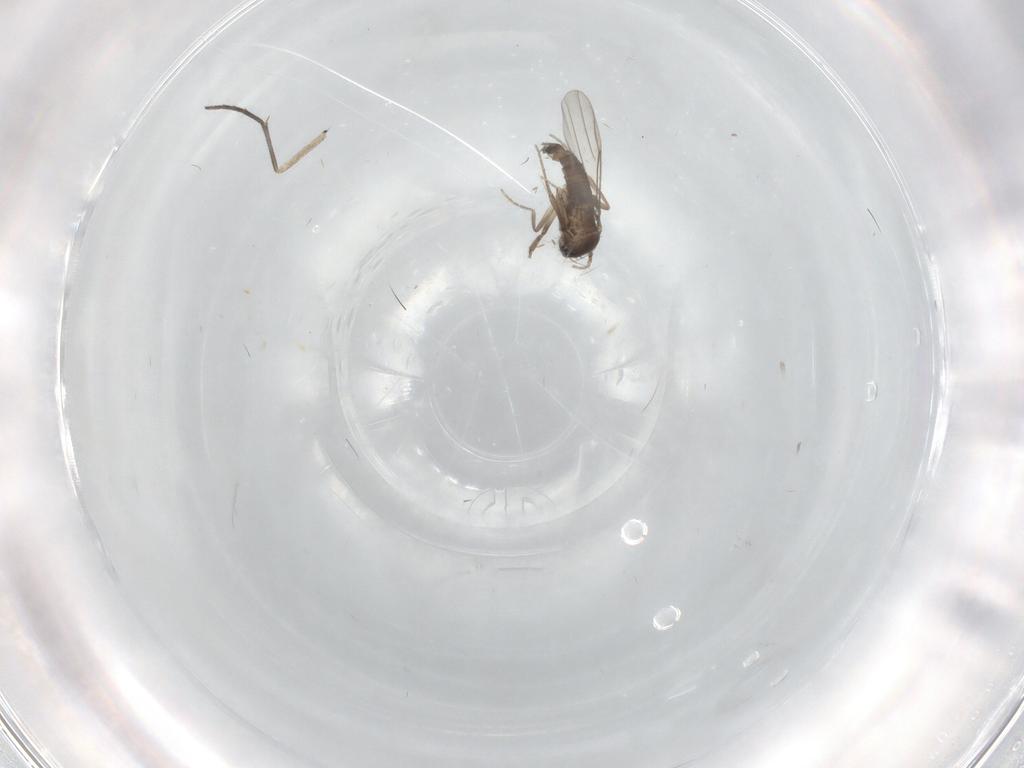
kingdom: Animalia
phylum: Arthropoda
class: Insecta
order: Diptera
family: Sciaridae
